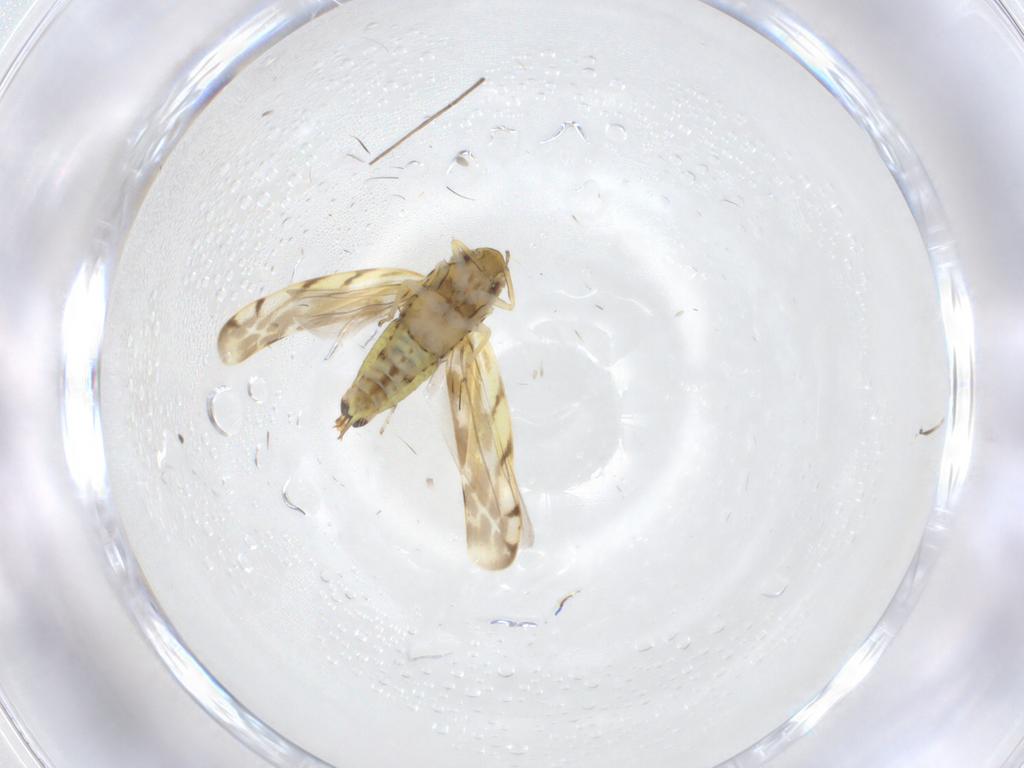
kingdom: Animalia
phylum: Arthropoda
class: Insecta
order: Hemiptera
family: Cicadellidae
